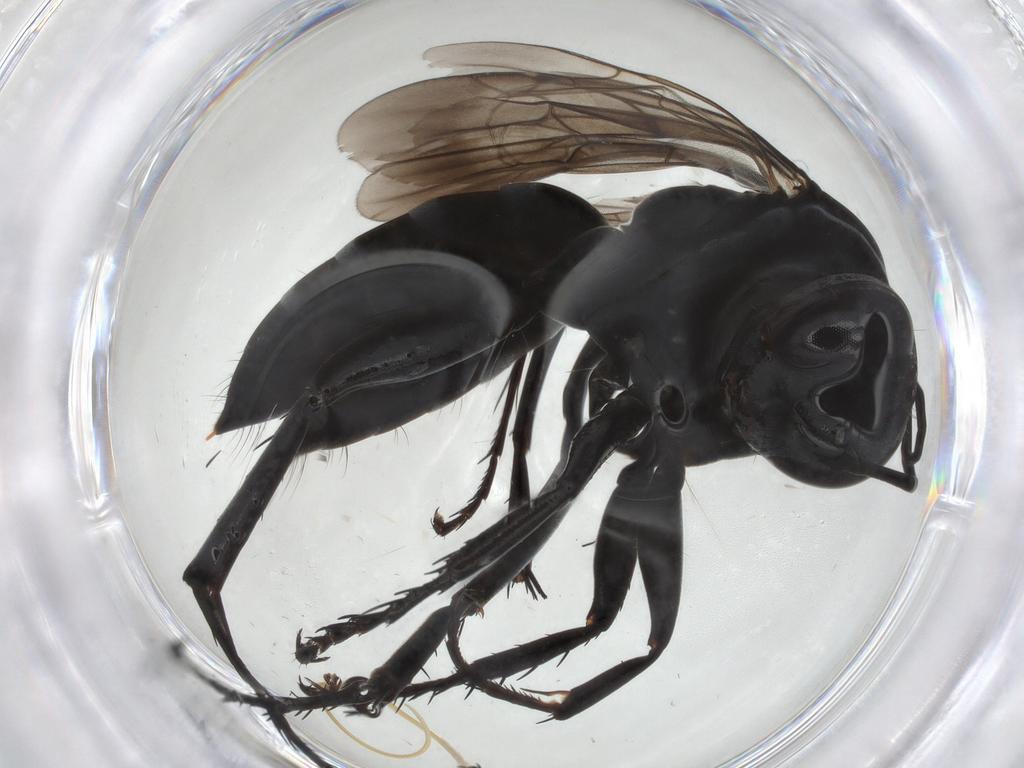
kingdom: Animalia
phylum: Arthropoda
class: Insecta
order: Hymenoptera
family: Pompilidae
